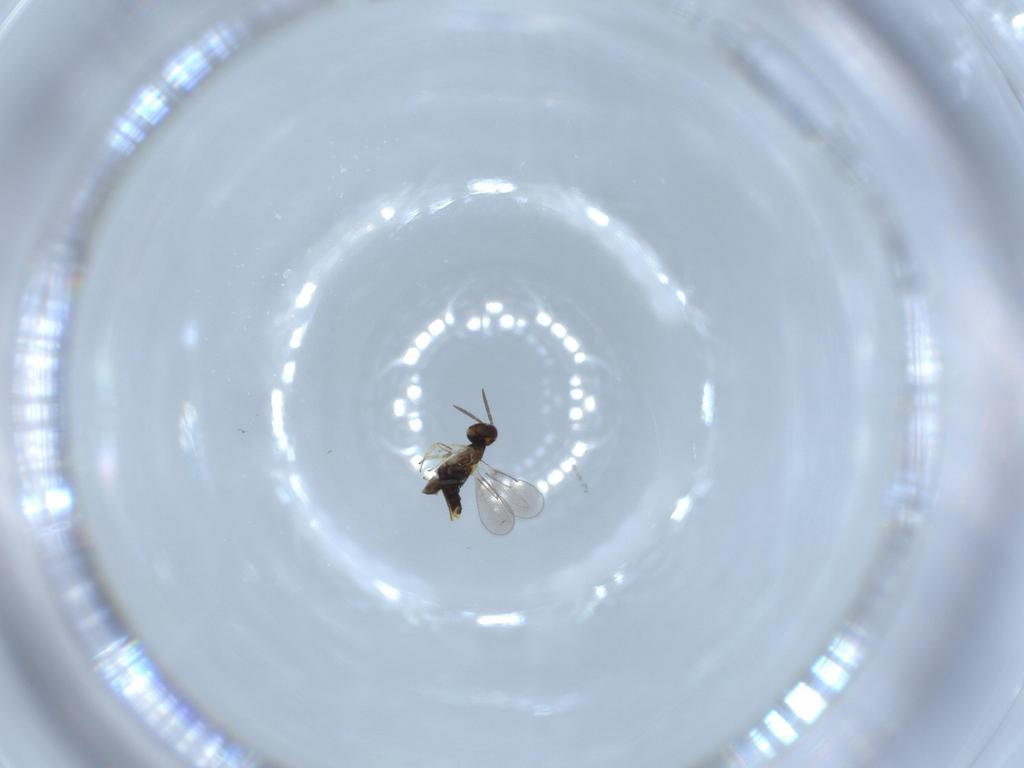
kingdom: Animalia
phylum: Arthropoda
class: Insecta
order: Hymenoptera
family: Aphelinidae
